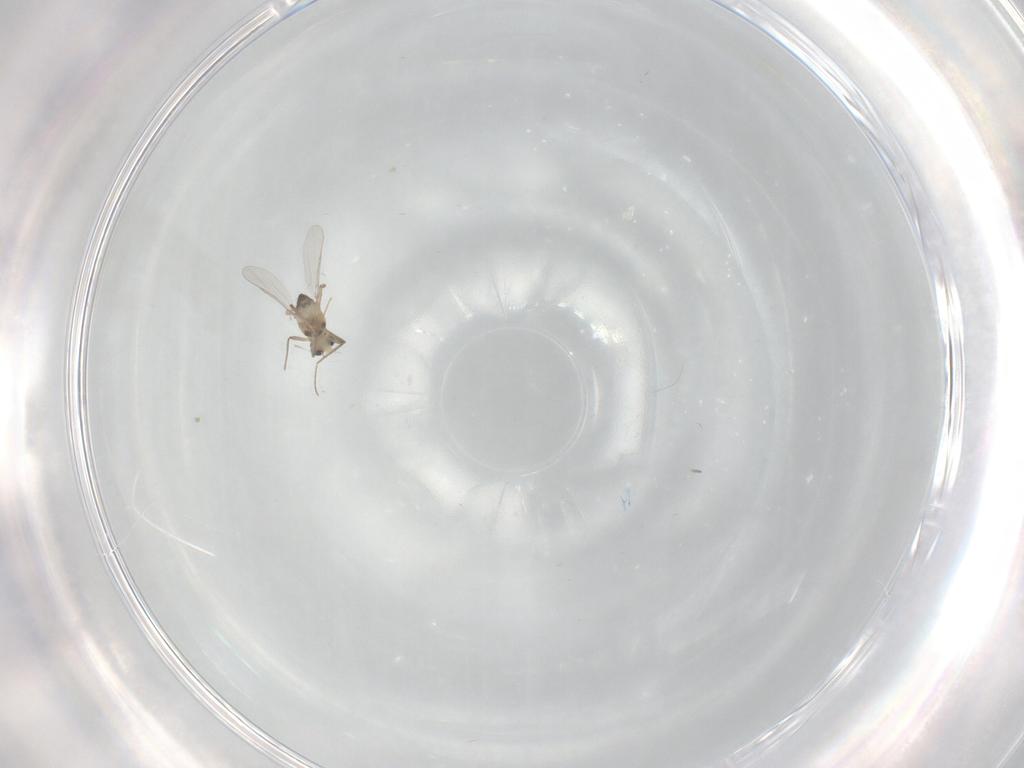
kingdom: Animalia
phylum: Arthropoda
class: Insecta
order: Diptera
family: Chironomidae
